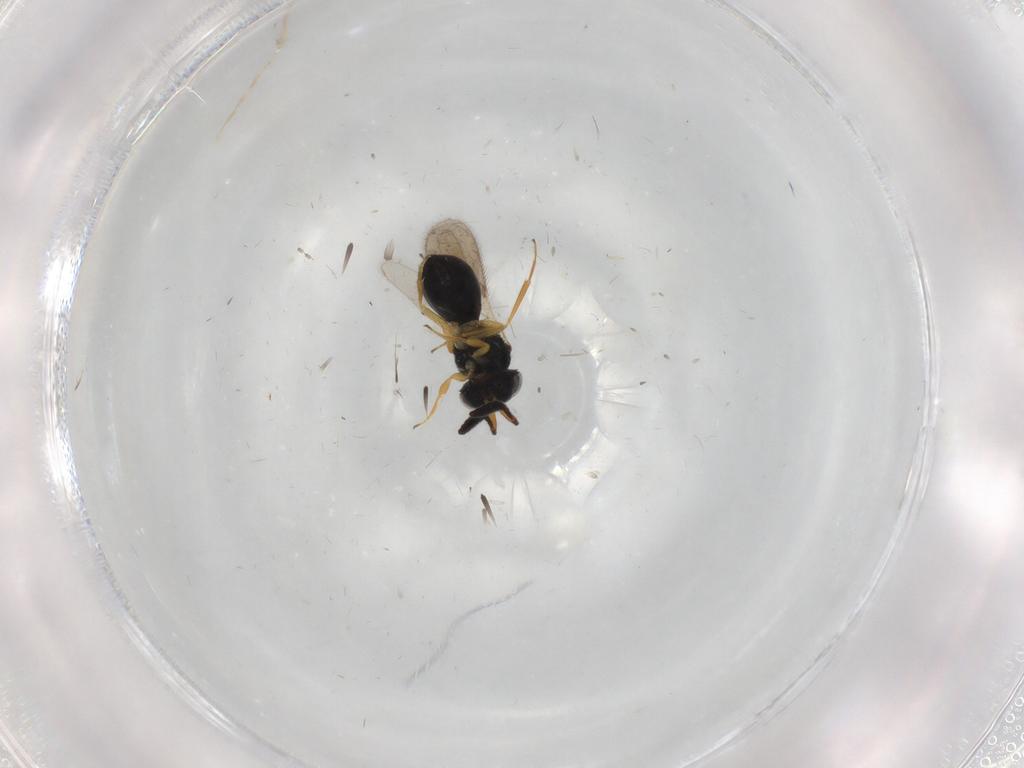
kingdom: Animalia
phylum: Arthropoda
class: Insecta
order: Hymenoptera
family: Scelionidae
